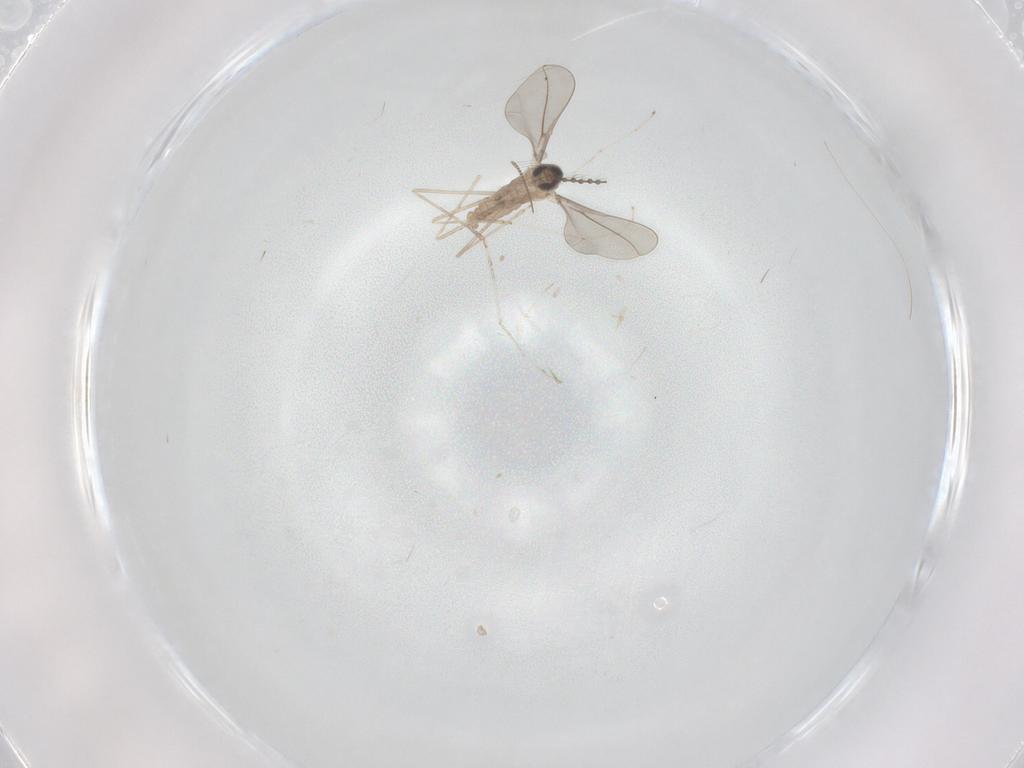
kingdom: Animalia
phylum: Arthropoda
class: Insecta
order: Diptera
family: Cecidomyiidae
